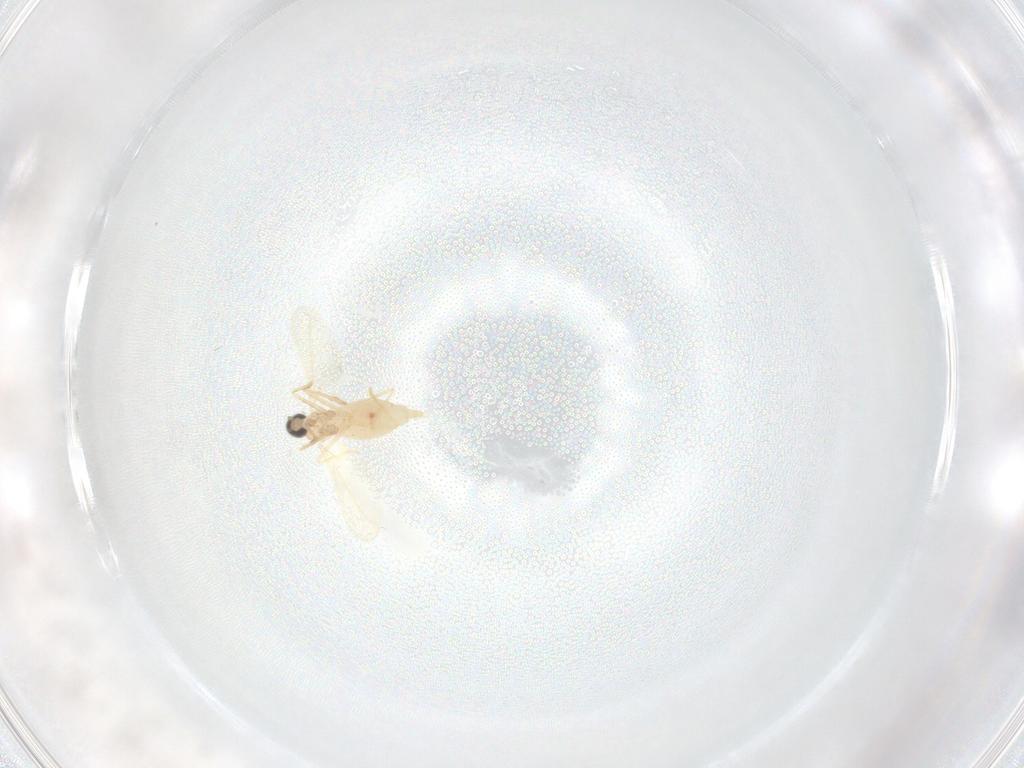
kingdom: Animalia
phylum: Arthropoda
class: Insecta
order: Diptera
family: Cecidomyiidae
